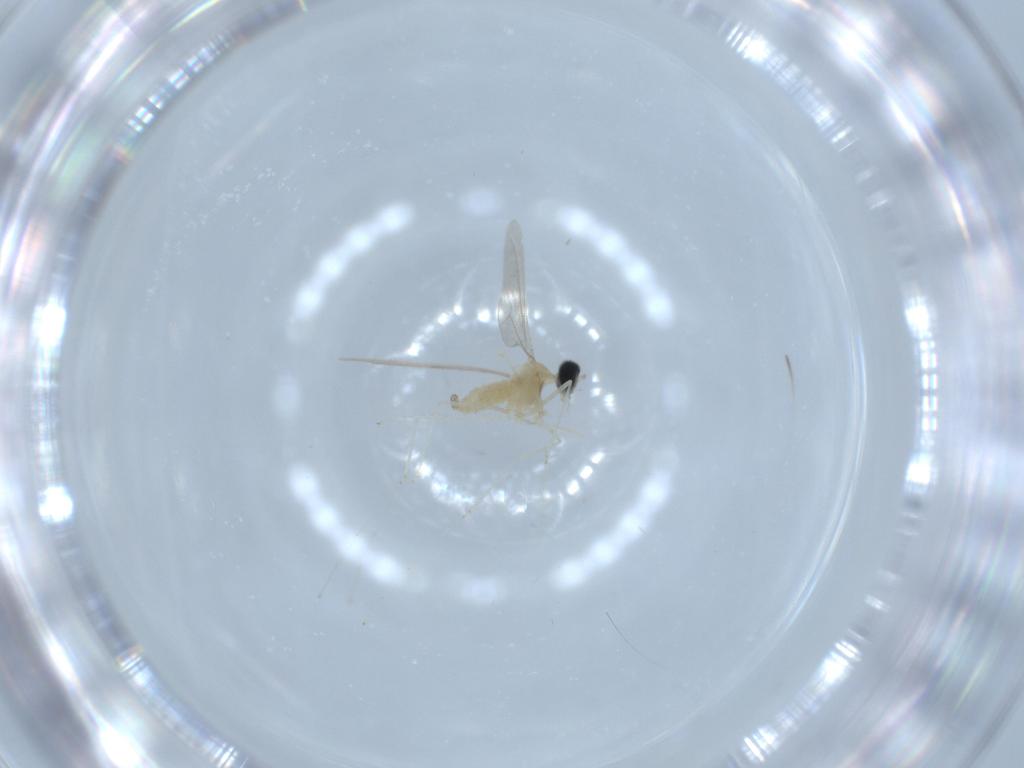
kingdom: Animalia
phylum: Arthropoda
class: Insecta
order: Diptera
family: Cecidomyiidae
